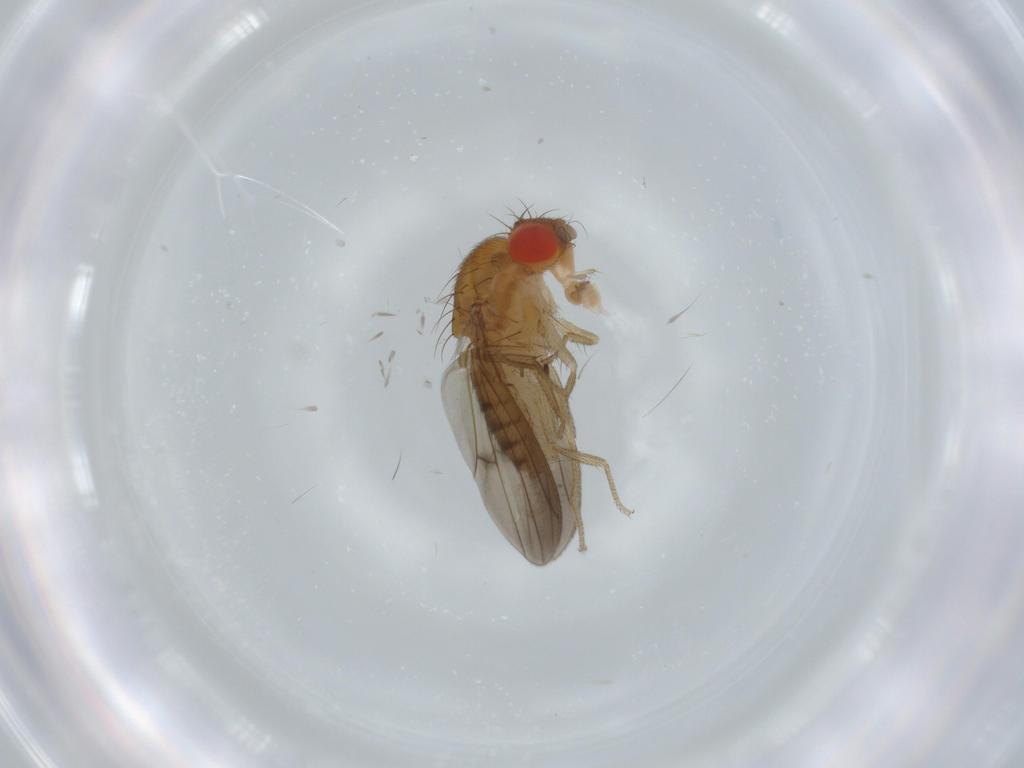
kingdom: Animalia
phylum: Arthropoda
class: Insecta
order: Diptera
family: Drosophilidae
